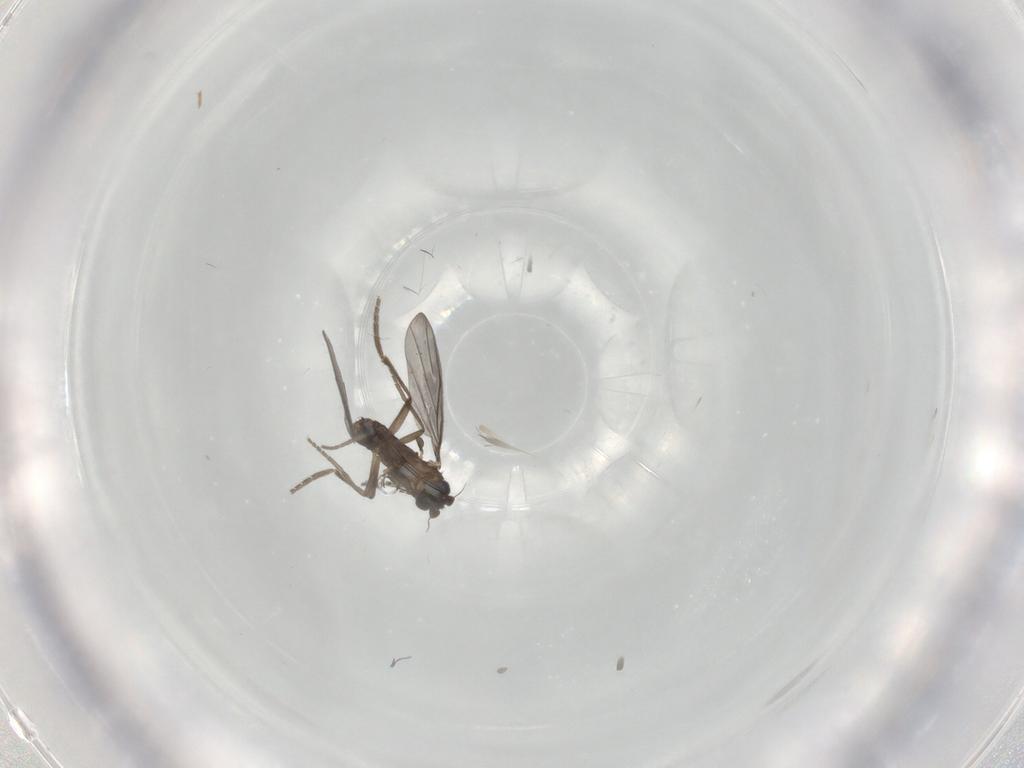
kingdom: Animalia
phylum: Arthropoda
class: Insecta
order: Diptera
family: Phoridae
